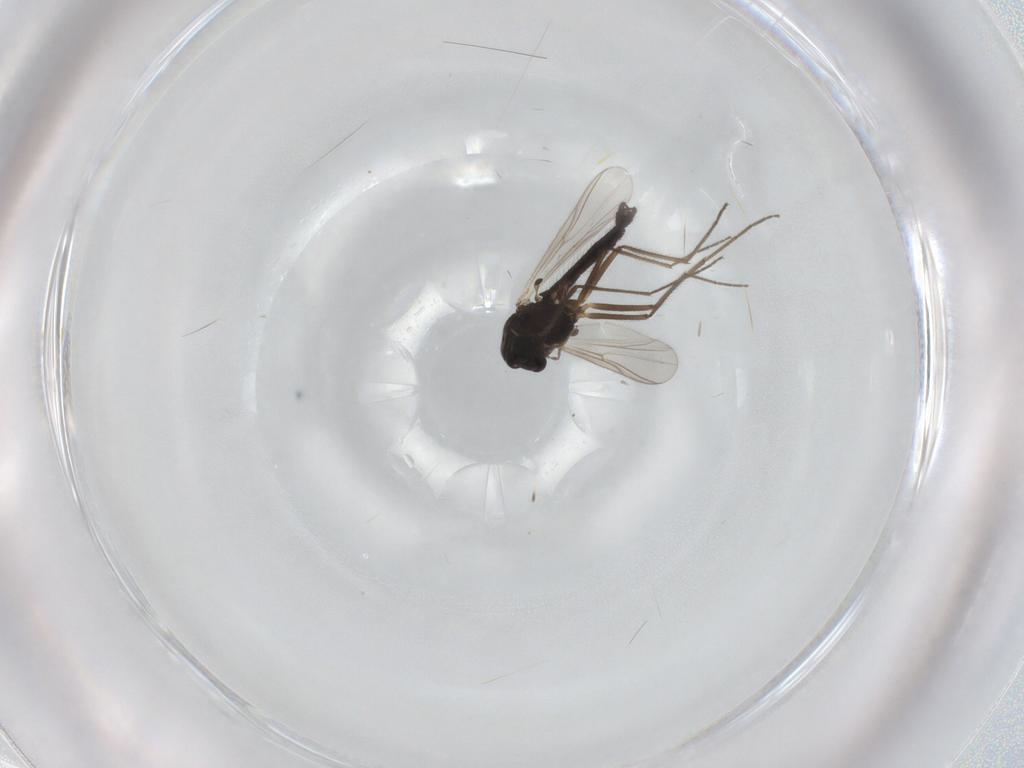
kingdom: Animalia
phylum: Arthropoda
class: Insecta
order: Diptera
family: Chironomidae
